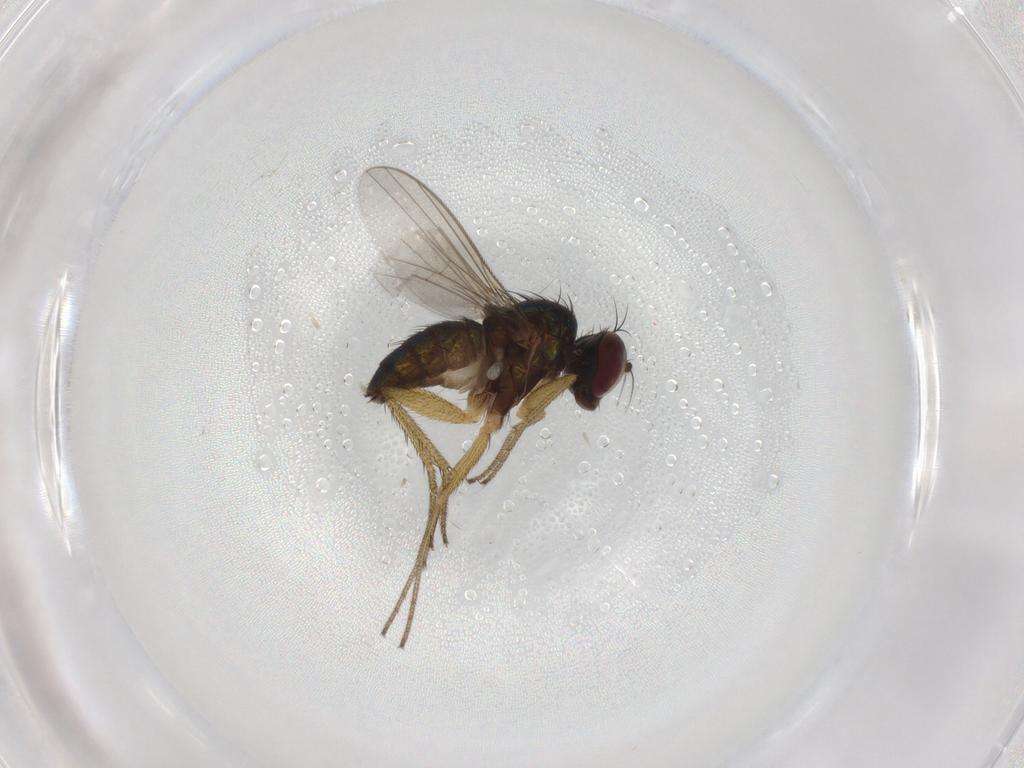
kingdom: Animalia
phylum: Arthropoda
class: Insecta
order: Diptera
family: Dolichopodidae
